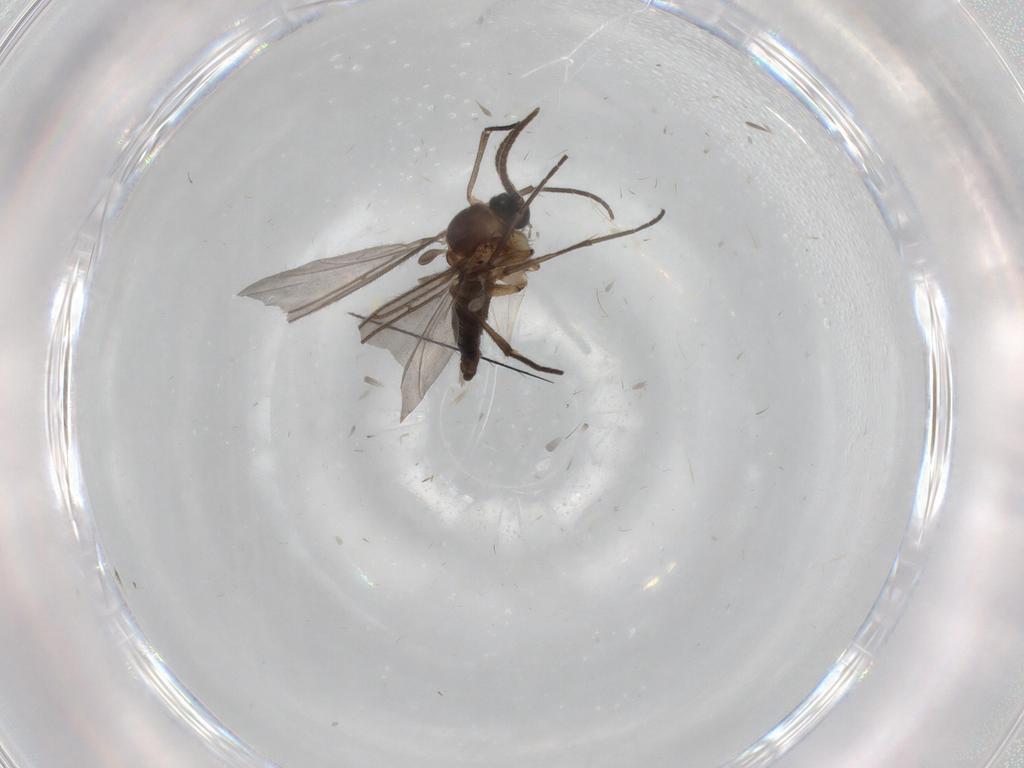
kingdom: Animalia
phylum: Arthropoda
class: Insecta
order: Diptera
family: Cecidomyiidae
